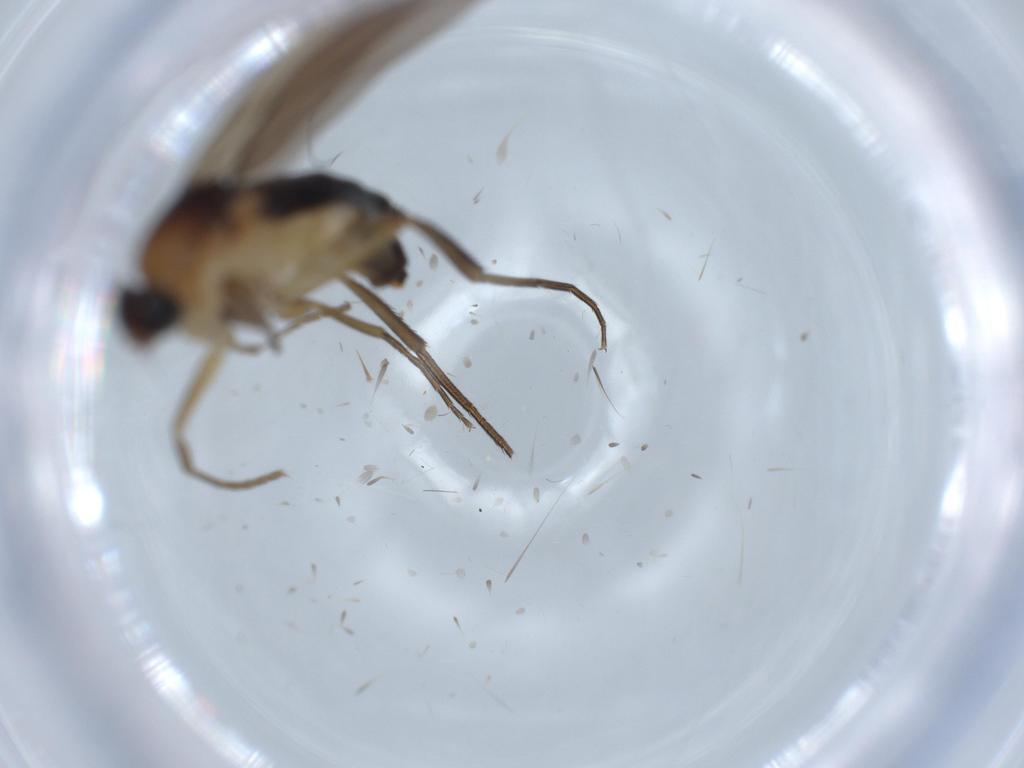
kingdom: Animalia
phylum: Arthropoda
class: Insecta
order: Diptera
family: Phoridae
